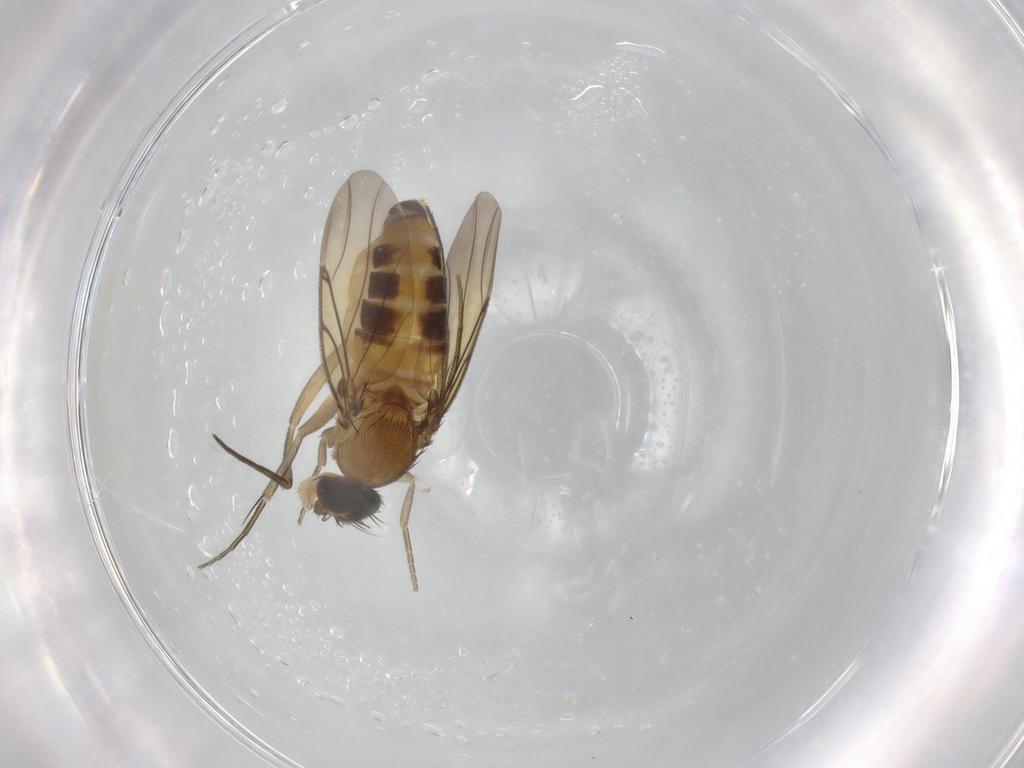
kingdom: Animalia
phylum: Arthropoda
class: Insecta
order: Diptera
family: Phoridae
